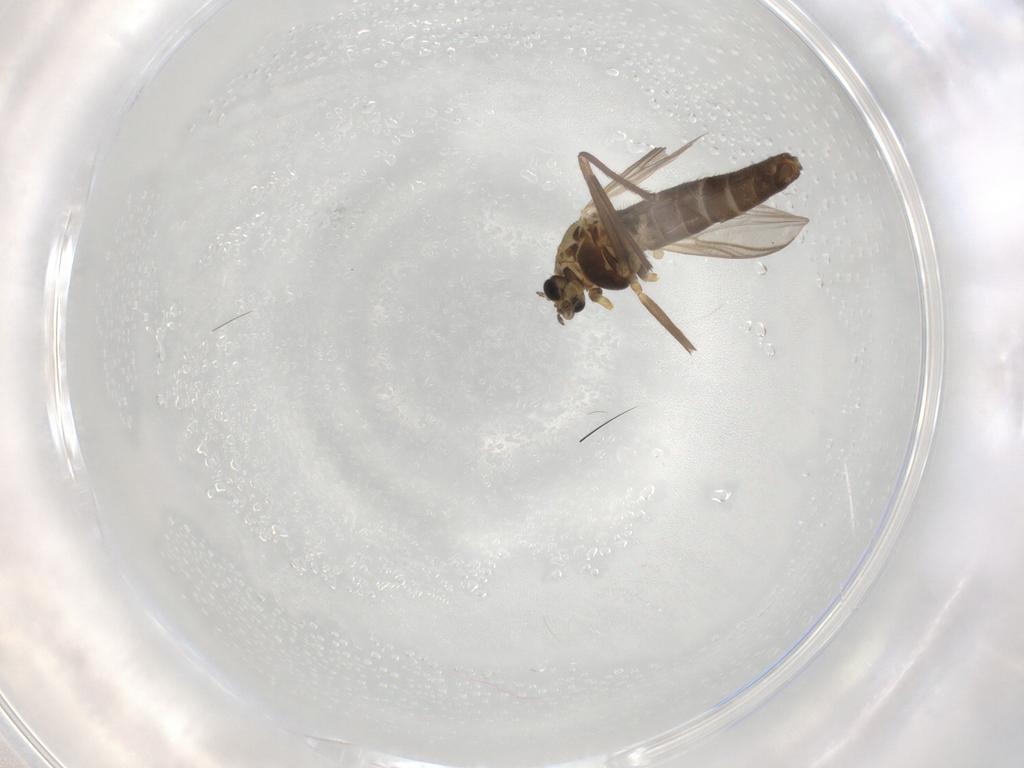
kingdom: Animalia
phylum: Arthropoda
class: Insecta
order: Diptera
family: Chironomidae
